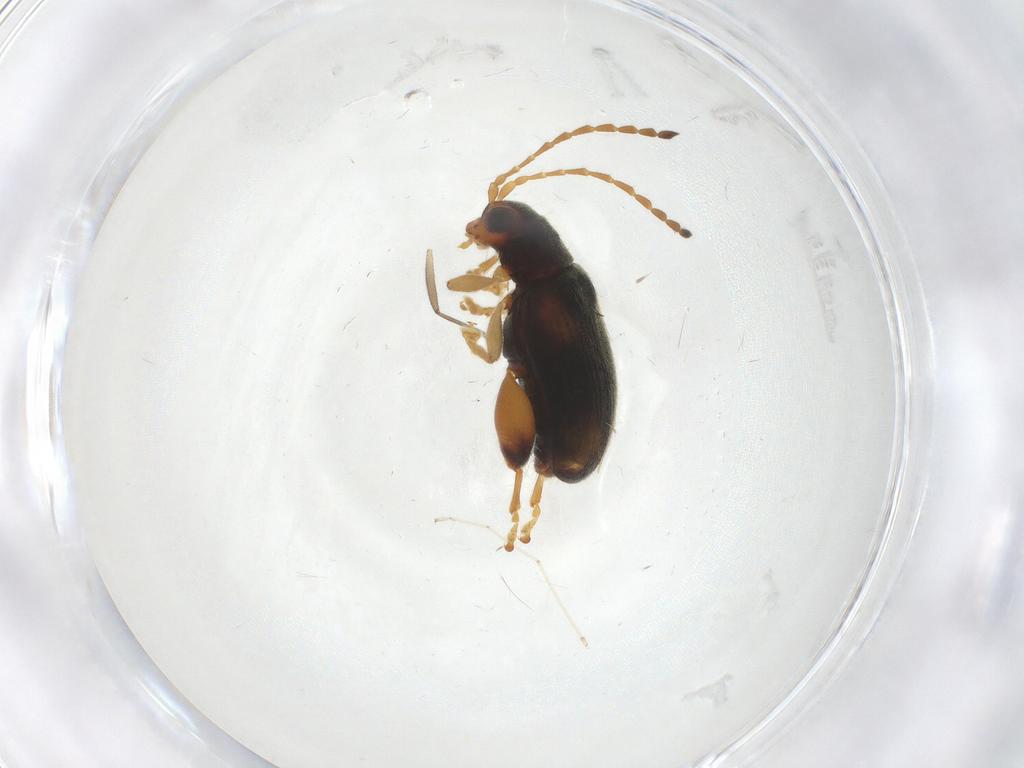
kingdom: Animalia
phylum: Arthropoda
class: Insecta
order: Coleoptera
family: Chrysomelidae
